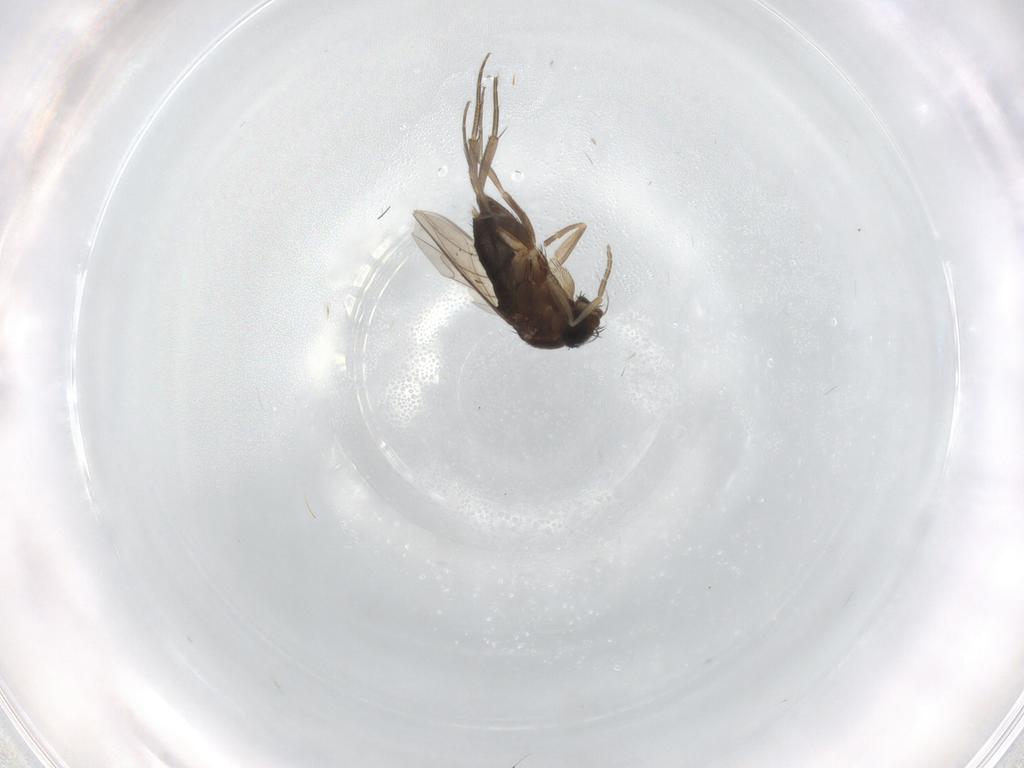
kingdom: Animalia
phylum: Arthropoda
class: Insecta
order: Diptera
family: Phoridae
